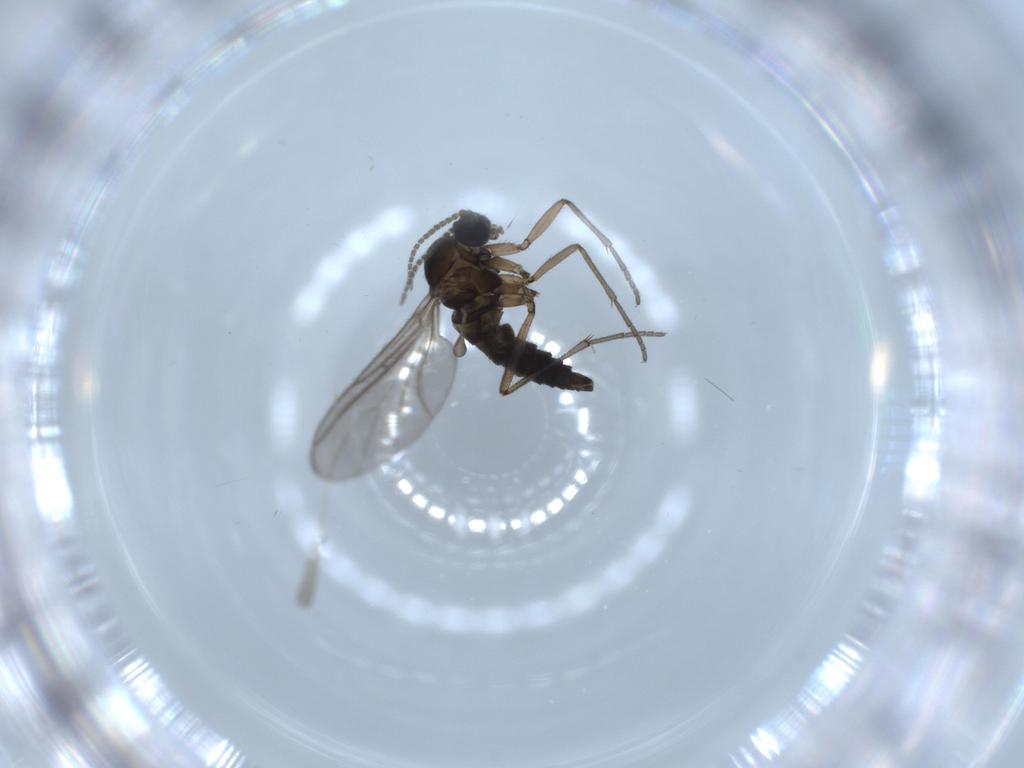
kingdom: Animalia
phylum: Arthropoda
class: Insecta
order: Diptera
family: Sciaridae
